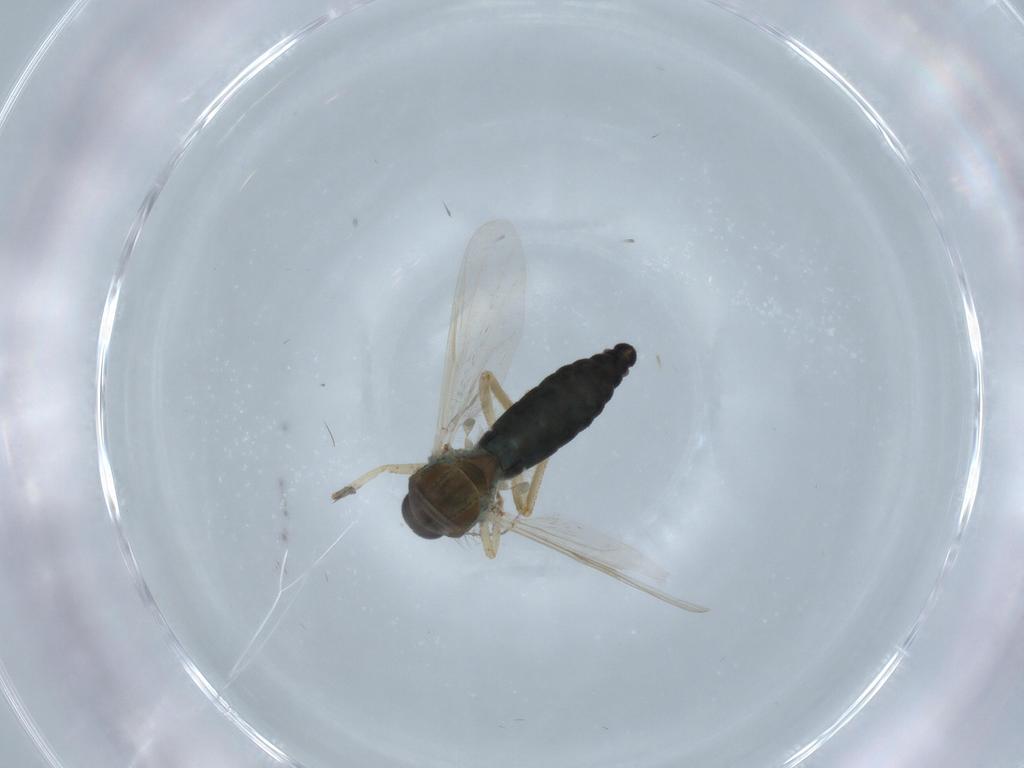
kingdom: Animalia
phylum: Arthropoda
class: Insecta
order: Diptera
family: Ceratopogonidae
